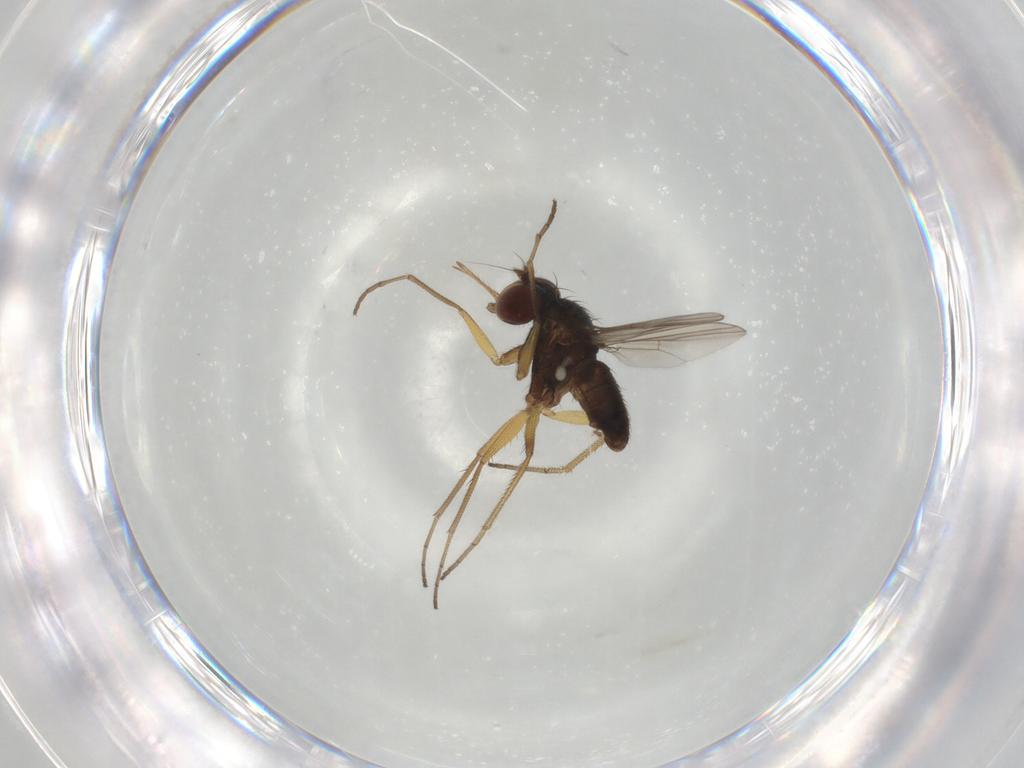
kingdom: Animalia
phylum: Arthropoda
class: Insecta
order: Diptera
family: Dolichopodidae
